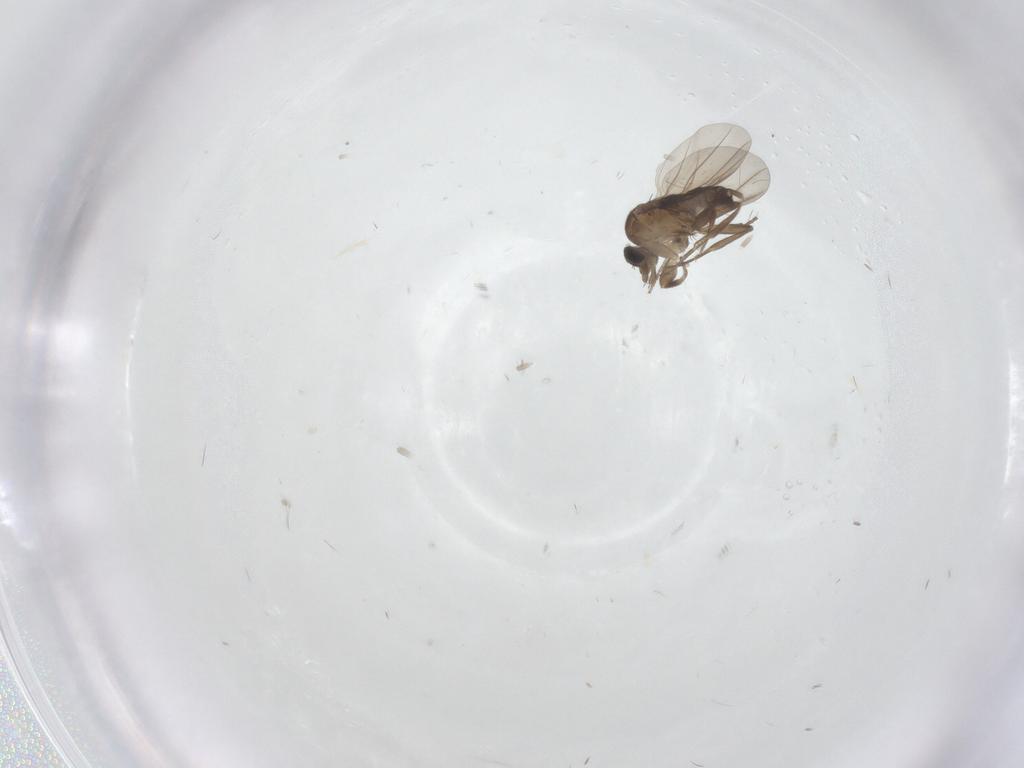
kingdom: Animalia
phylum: Arthropoda
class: Insecta
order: Diptera
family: Phoridae
